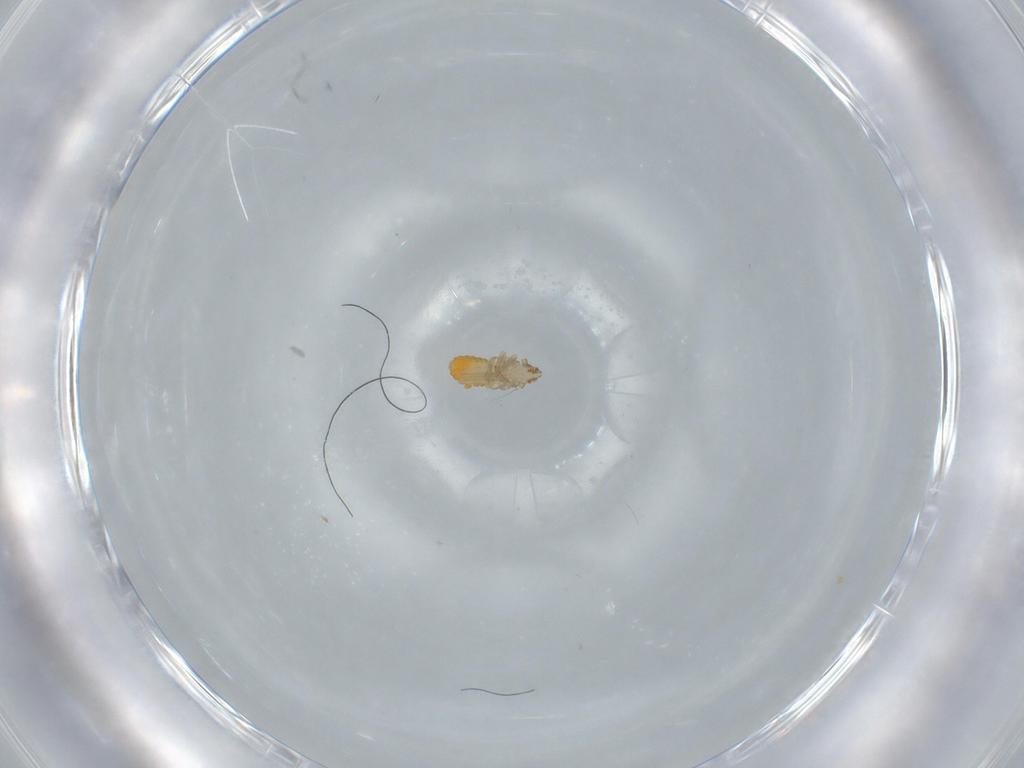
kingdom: Animalia
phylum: Arthropoda
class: Insecta
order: Hemiptera
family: Delphacidae
